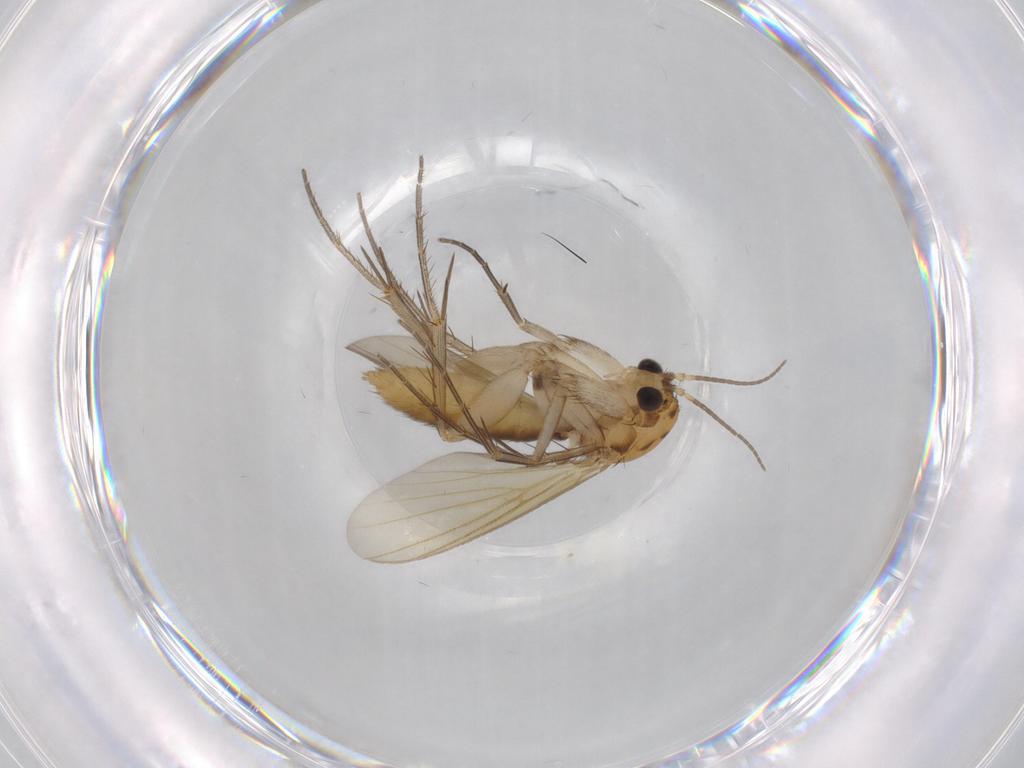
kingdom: Animalia
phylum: Arthropoda
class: Insecta
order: Diptera
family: Mycetophilidae
